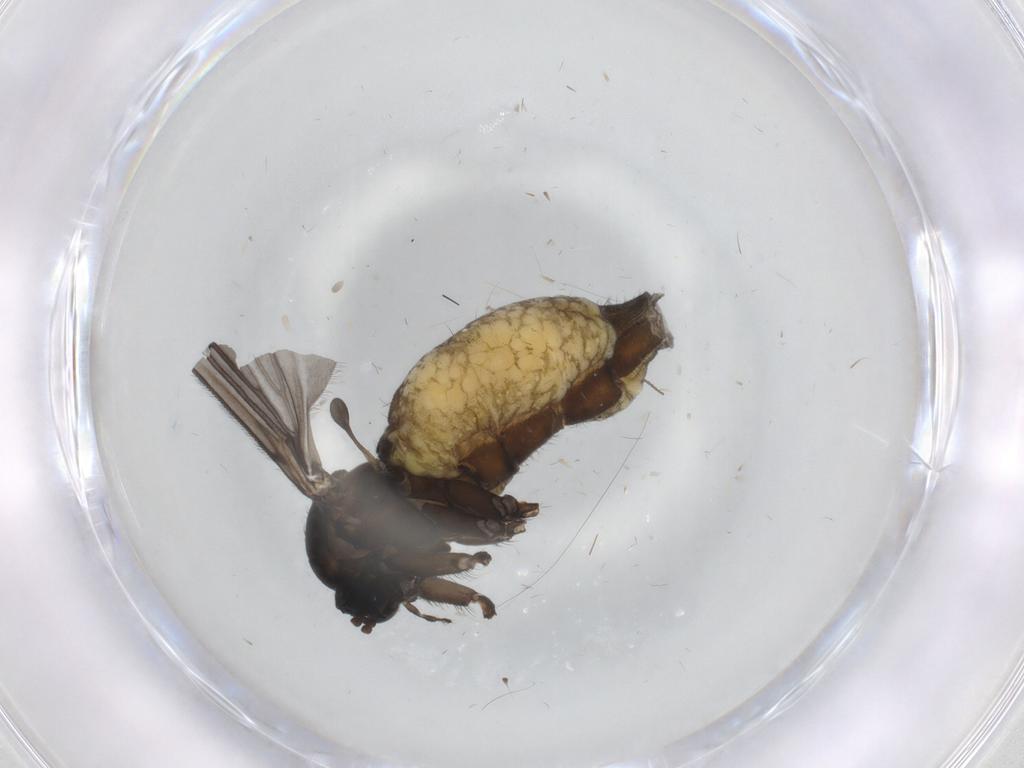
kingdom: Animalia
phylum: Arthropoda
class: Insecta
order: Diptera
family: Sciaridae
